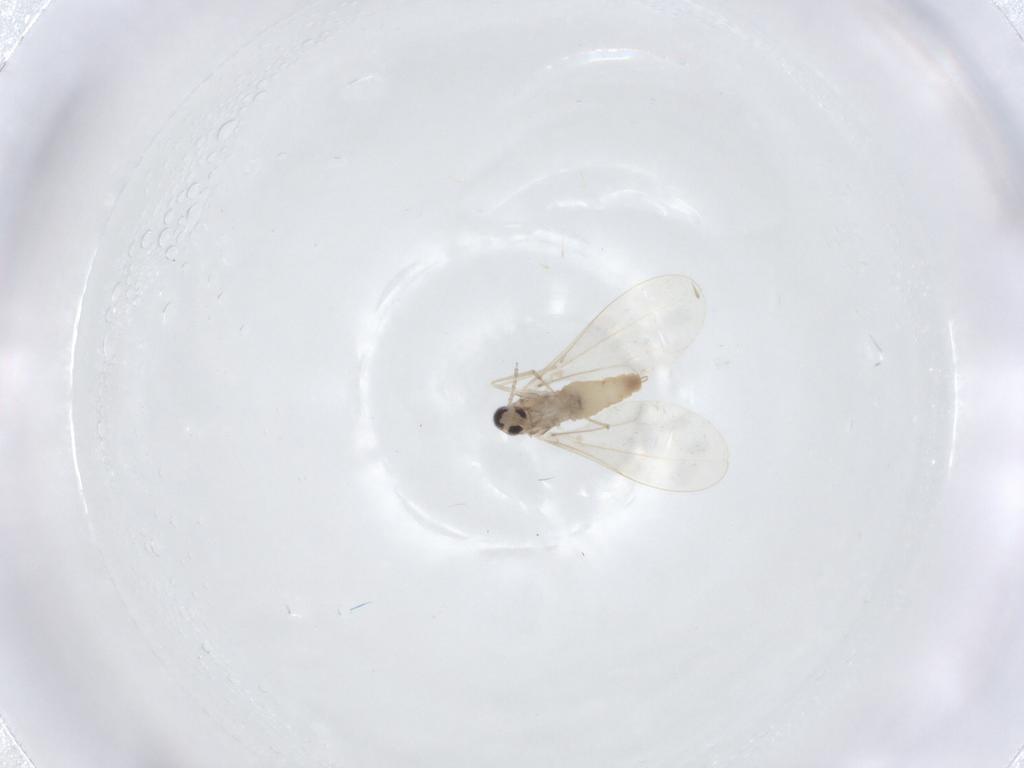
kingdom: Animalia
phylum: Arthropoda
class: Insecta
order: Diptera
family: Cecidomyiidae
